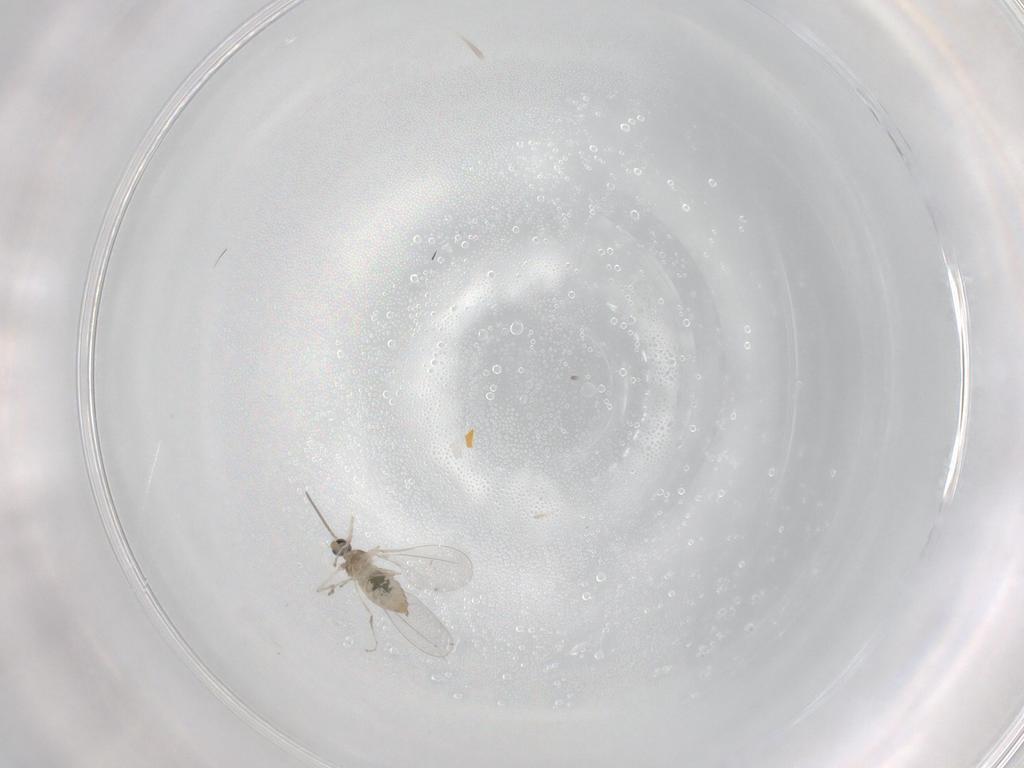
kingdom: Animalia
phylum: Arthropoda
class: Insecta
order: Diptera
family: Cecidomyiidae
